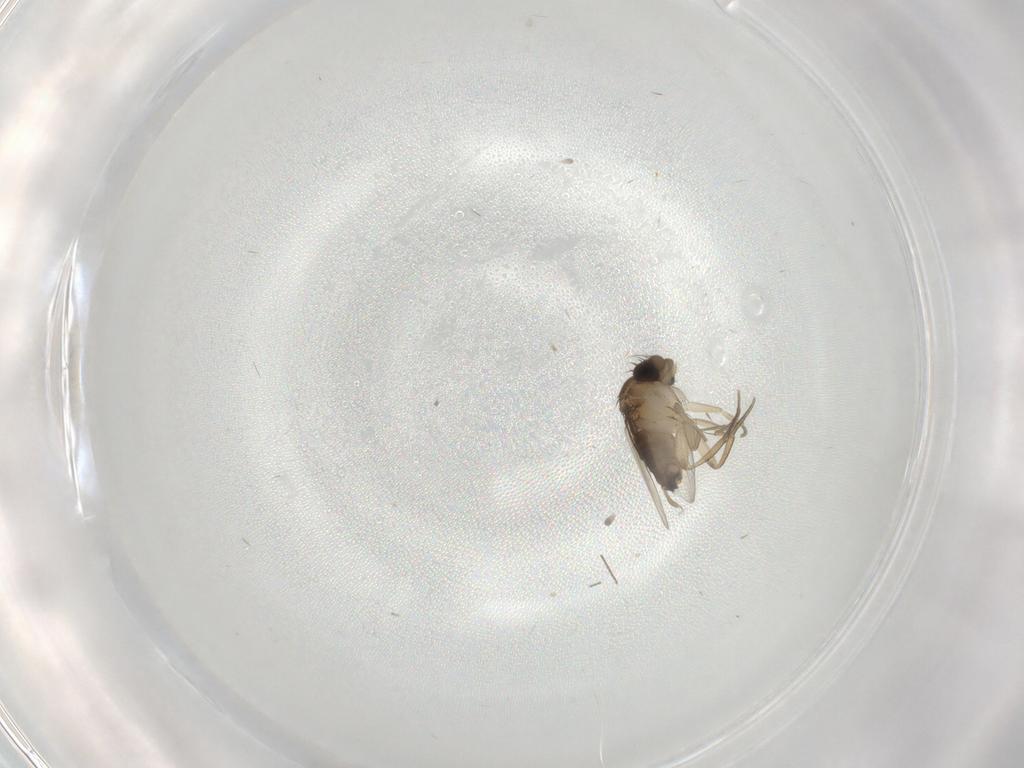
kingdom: Animalia
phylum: Arthropoda
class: Insecta
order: Diptera
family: Cecidomyiidae
